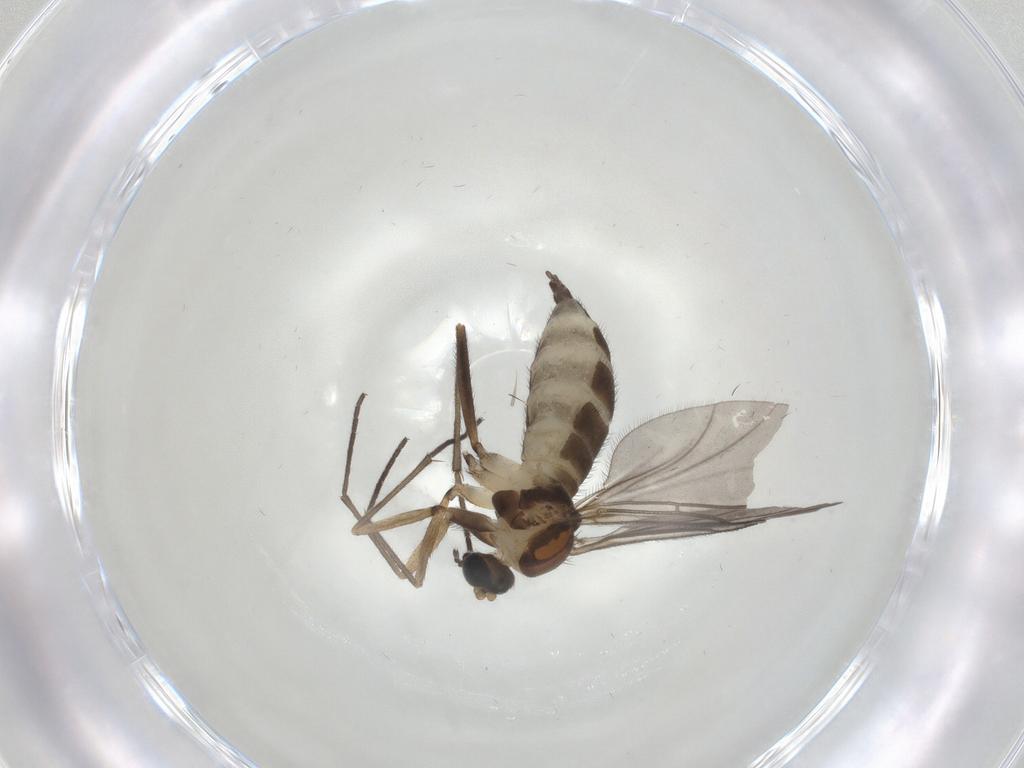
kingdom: Animalia
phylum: Arthropoda
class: Insecta
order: Diptera
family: Sciaridae
